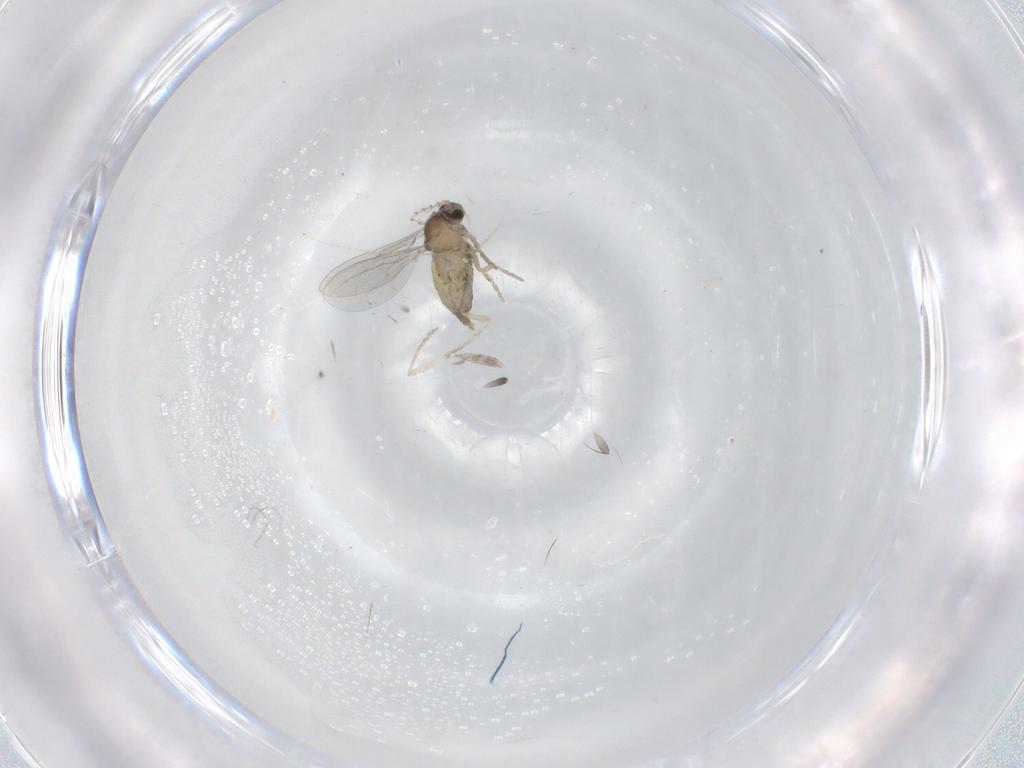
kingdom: Animalia
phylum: Arthropoda
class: Insecta
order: Diptera
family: Cecidomyiidae
